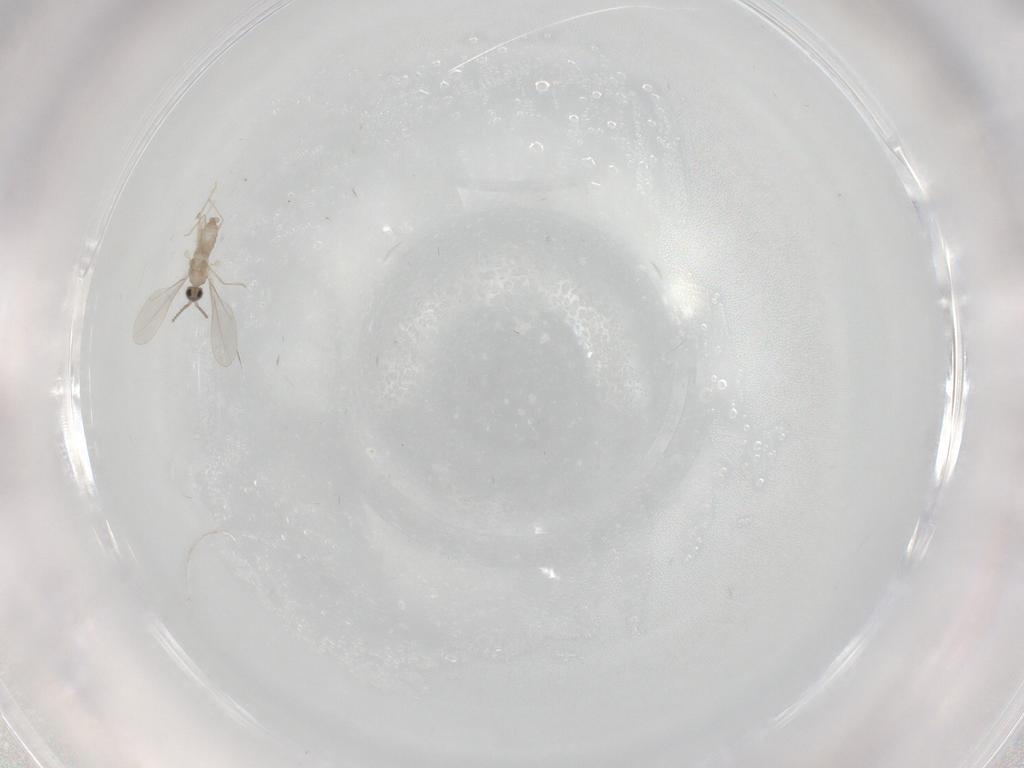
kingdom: Animalia
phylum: Arthropoda
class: Insecta
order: Diptera
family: Cecidomyiidae
